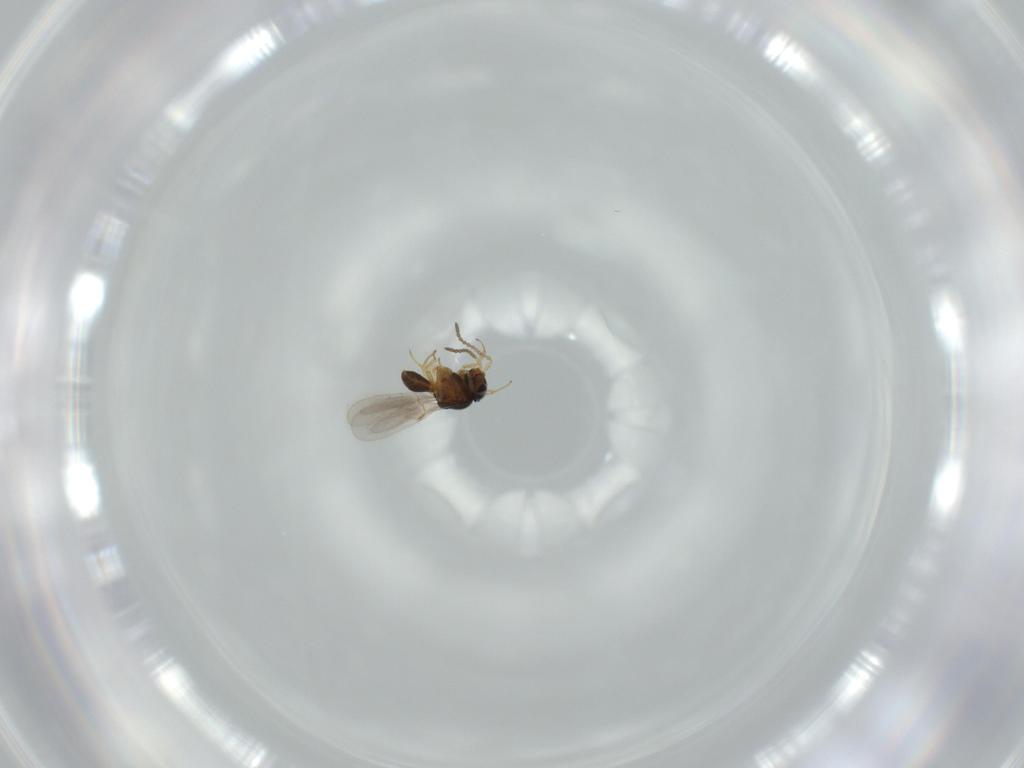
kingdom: Animalia
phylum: Arthropoda
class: Insecta
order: Hymenoptera
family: Scelionidae
